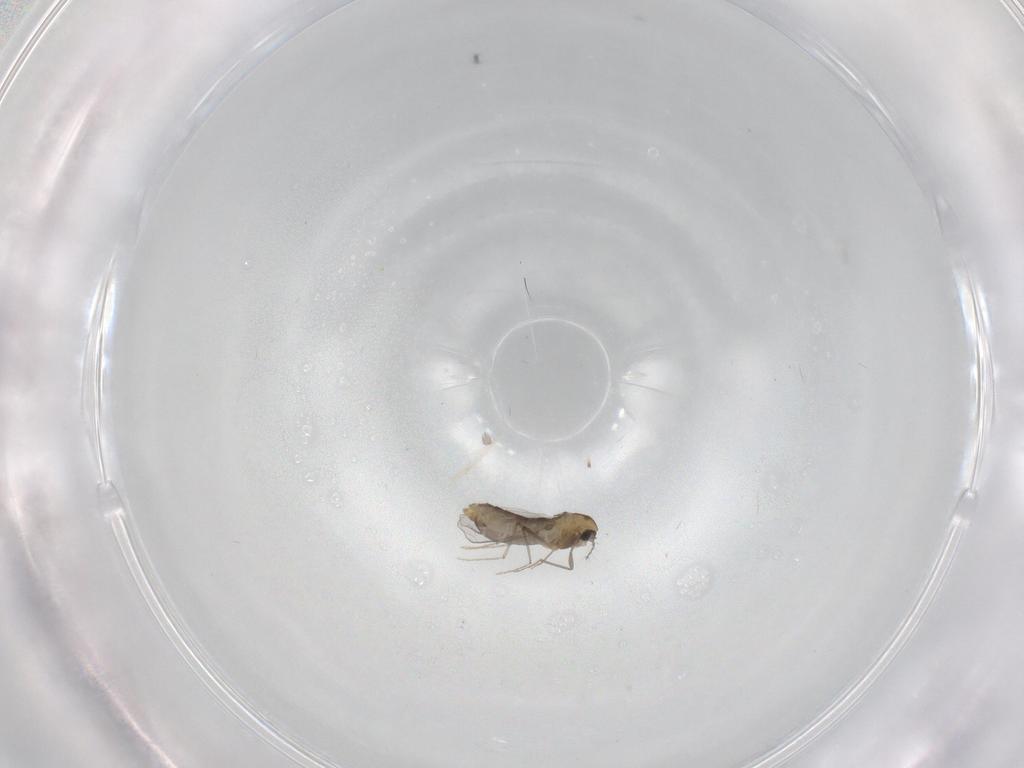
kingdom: Animalia
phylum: Arthropoda
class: Insecta
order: Diptera
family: Chironomidae
